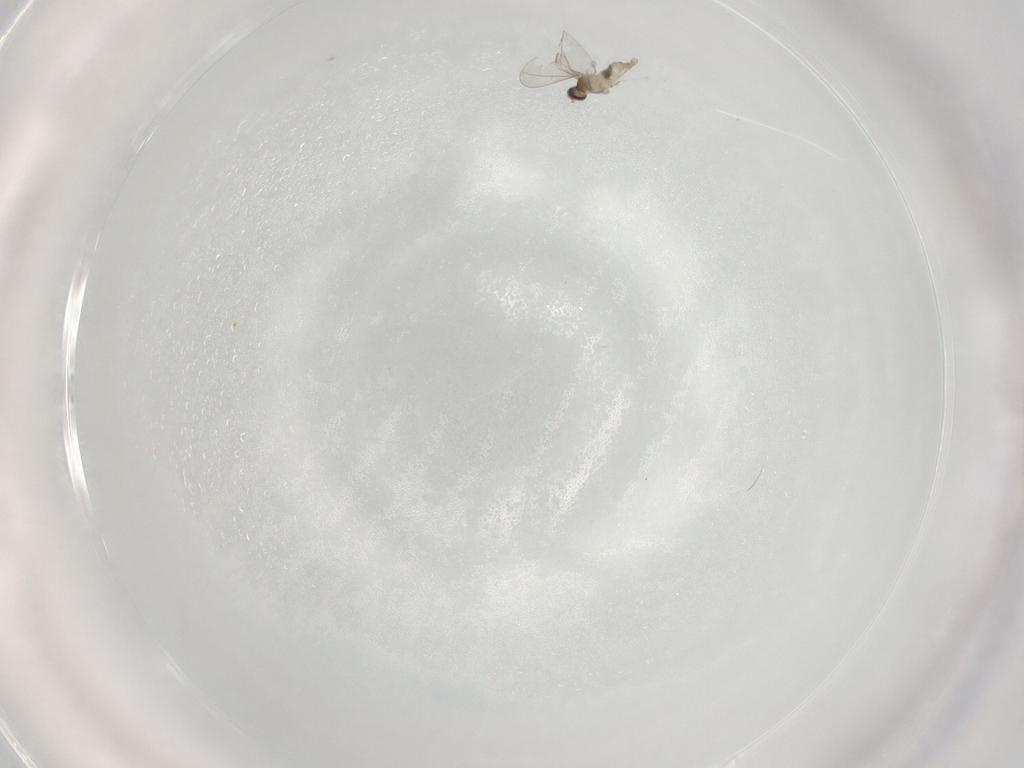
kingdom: Animalia
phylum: Arthropoda
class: Insecta
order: Diptera
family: Cecidomyiidae
